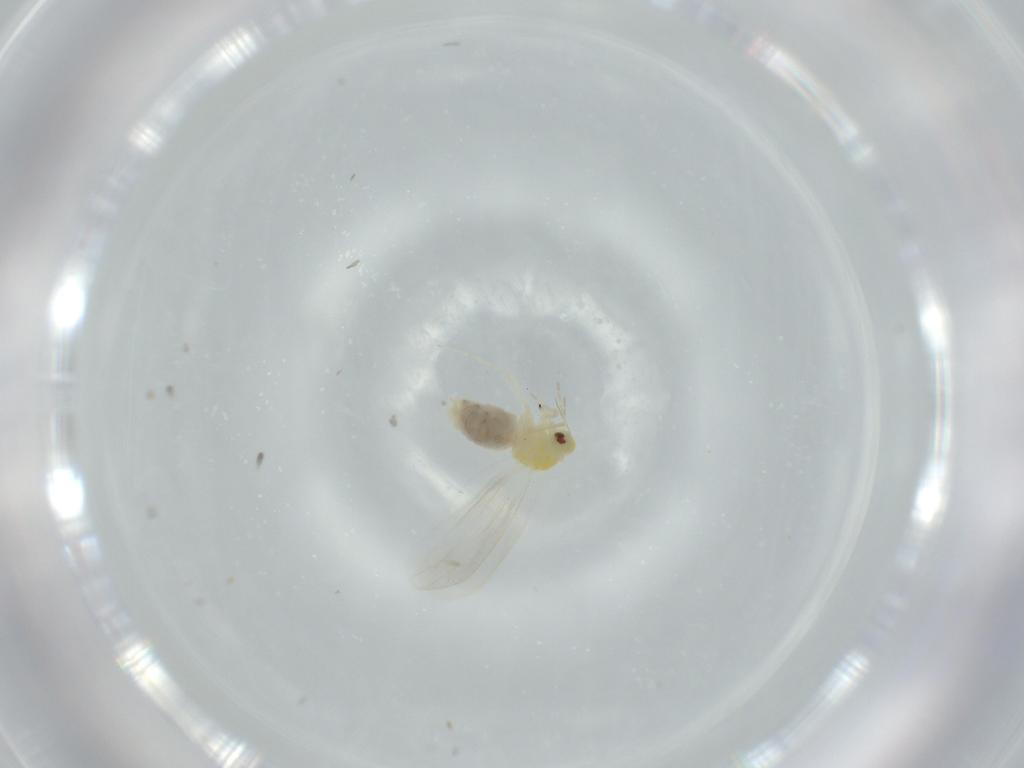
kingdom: Animalia
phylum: Arthropoda
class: Insecta
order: Hemiptera
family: Aleyrodidae
